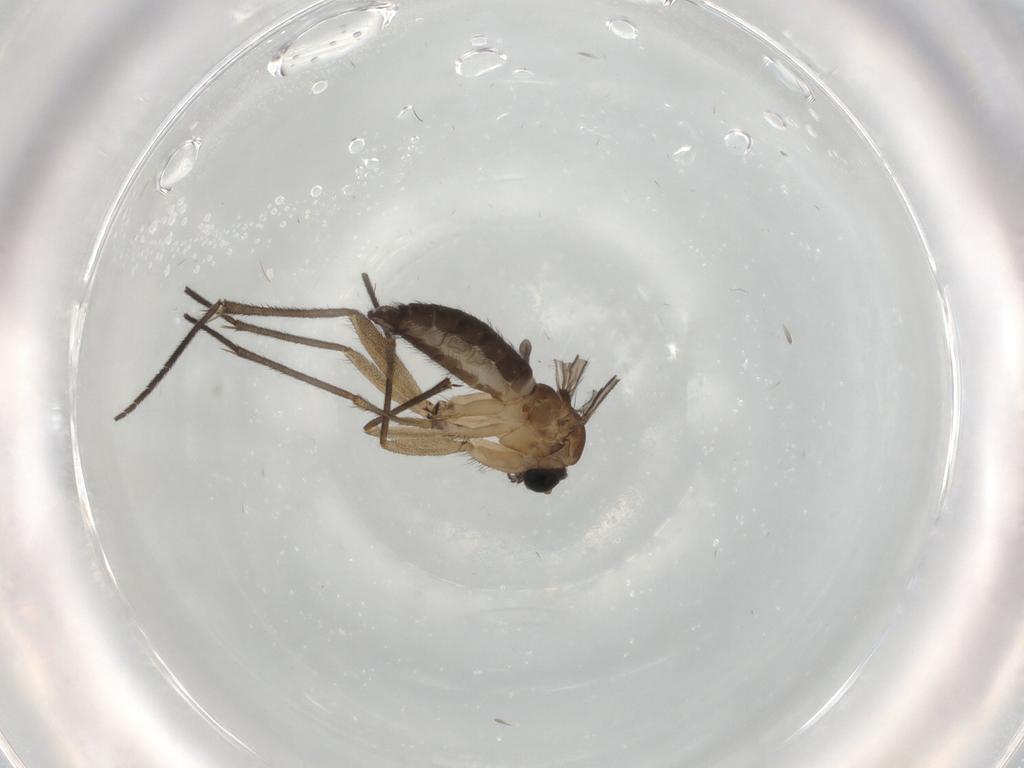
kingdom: Animalia
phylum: Arthropoda
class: Insecta
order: Diptera
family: Sciaridae
